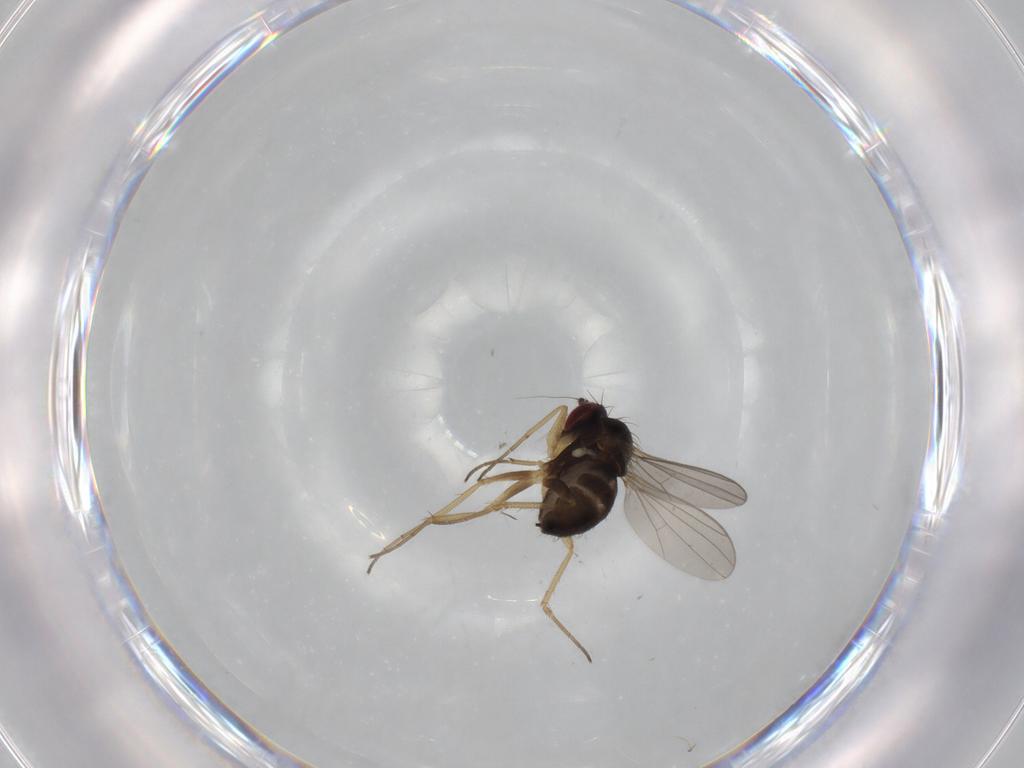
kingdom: Animalia
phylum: Arthropoda
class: Insecta
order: Diptera
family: Dolichopodidae
